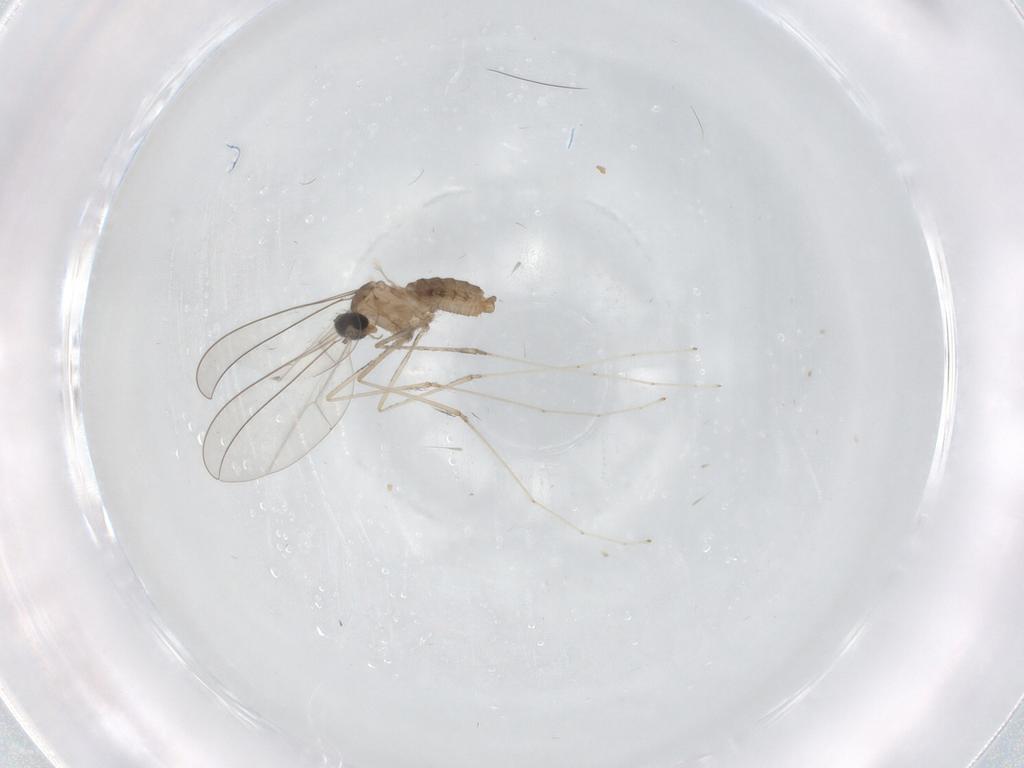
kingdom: Animalia
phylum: Arthropoda
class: Insecta
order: Diptera
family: Cecidomyiidae
